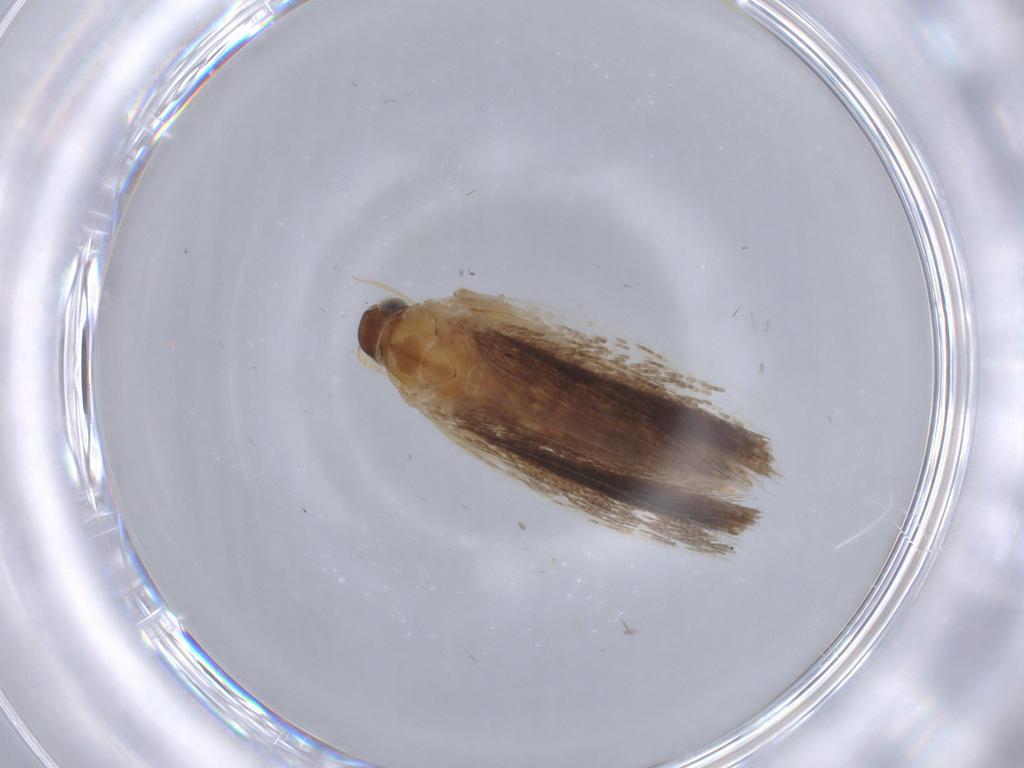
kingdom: Animalia
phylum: Arthropoda
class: Insecta
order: Lepidoptera
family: Gelechiidae
